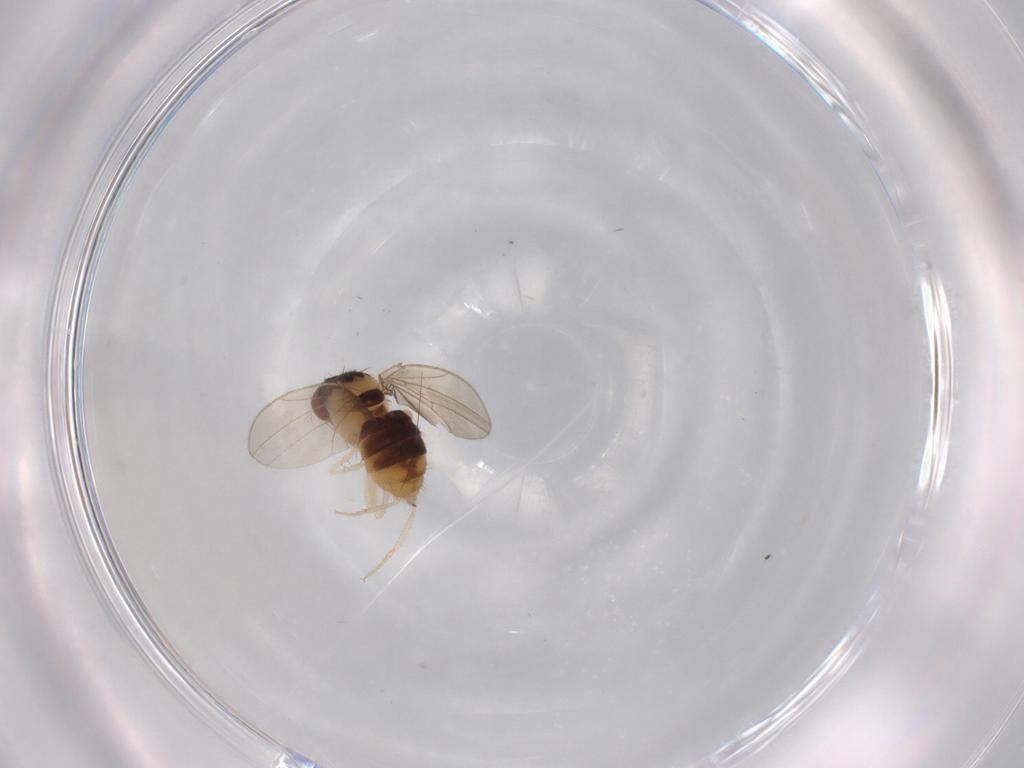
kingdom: Animalia
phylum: Arthropoda
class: Insecta
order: Diptera
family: Drosophilidae
